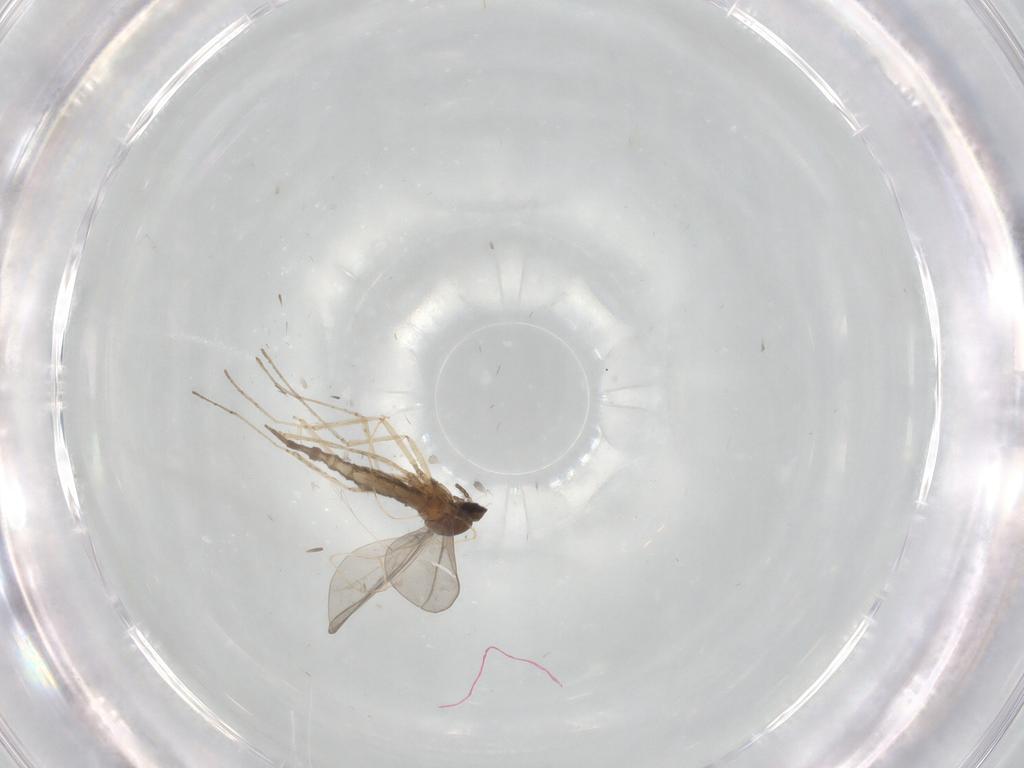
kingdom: Animalia
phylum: Arthropoda
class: Insecta
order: Diptera
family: Cecidomyiidae
